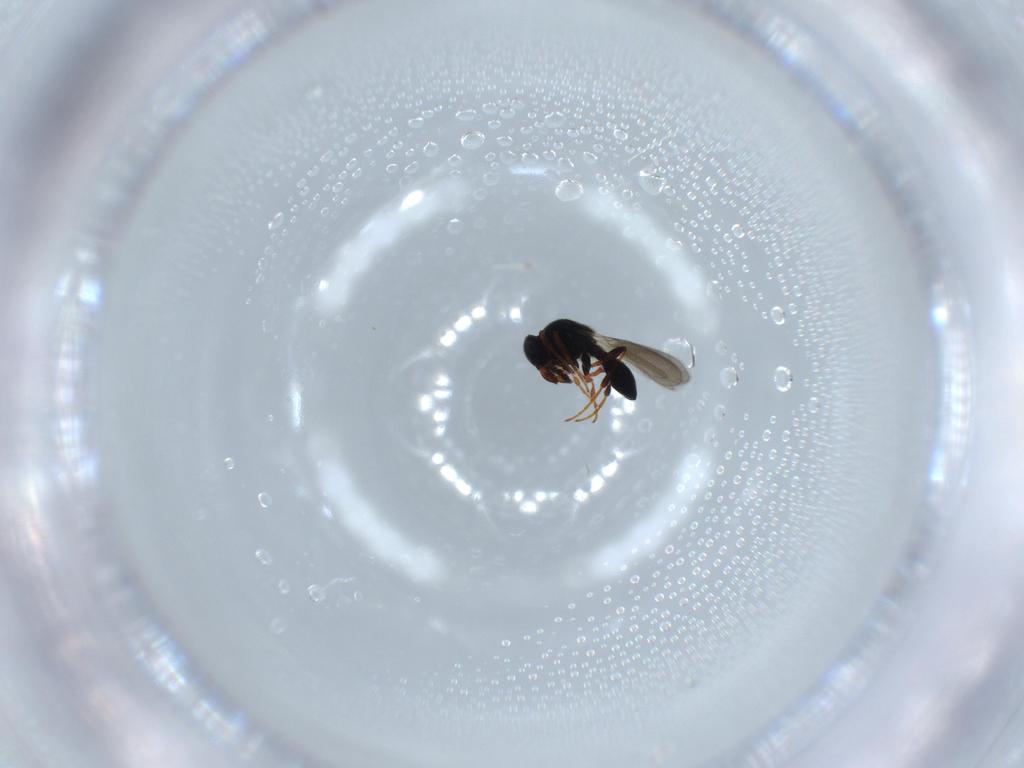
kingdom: Animalia
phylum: Arthropoda
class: Insecta
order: Hymenoptera
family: Platygastridae
